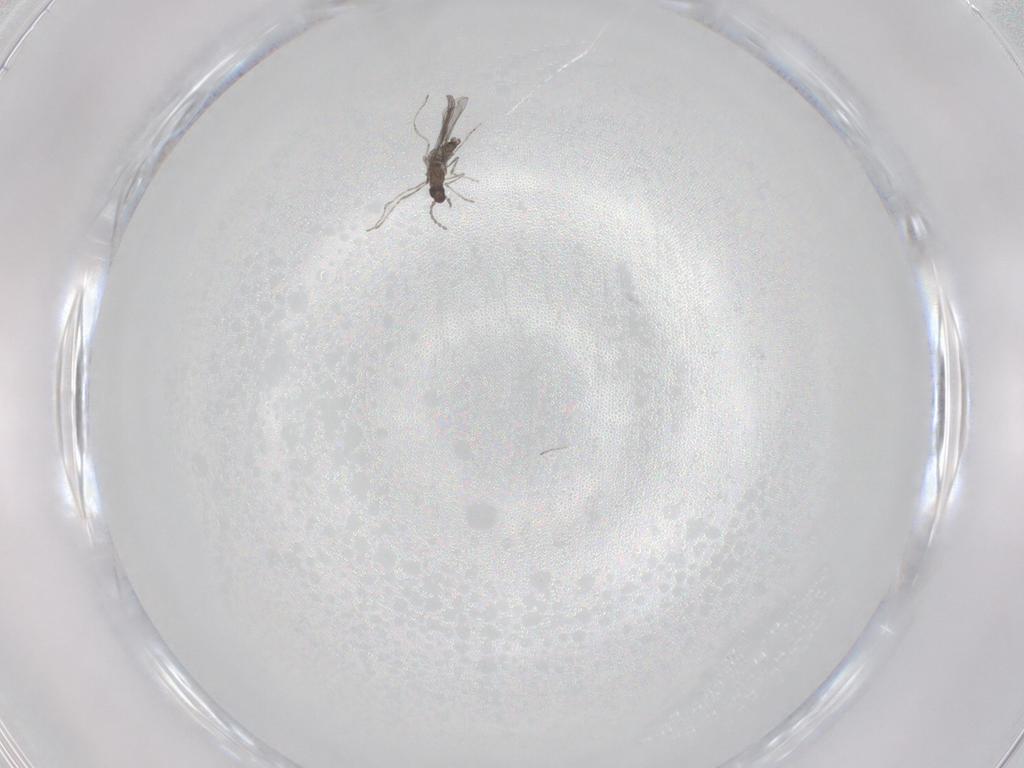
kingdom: Animalia
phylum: Arthropoda
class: Insecta
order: Diptera
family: Cecidomyiidae
